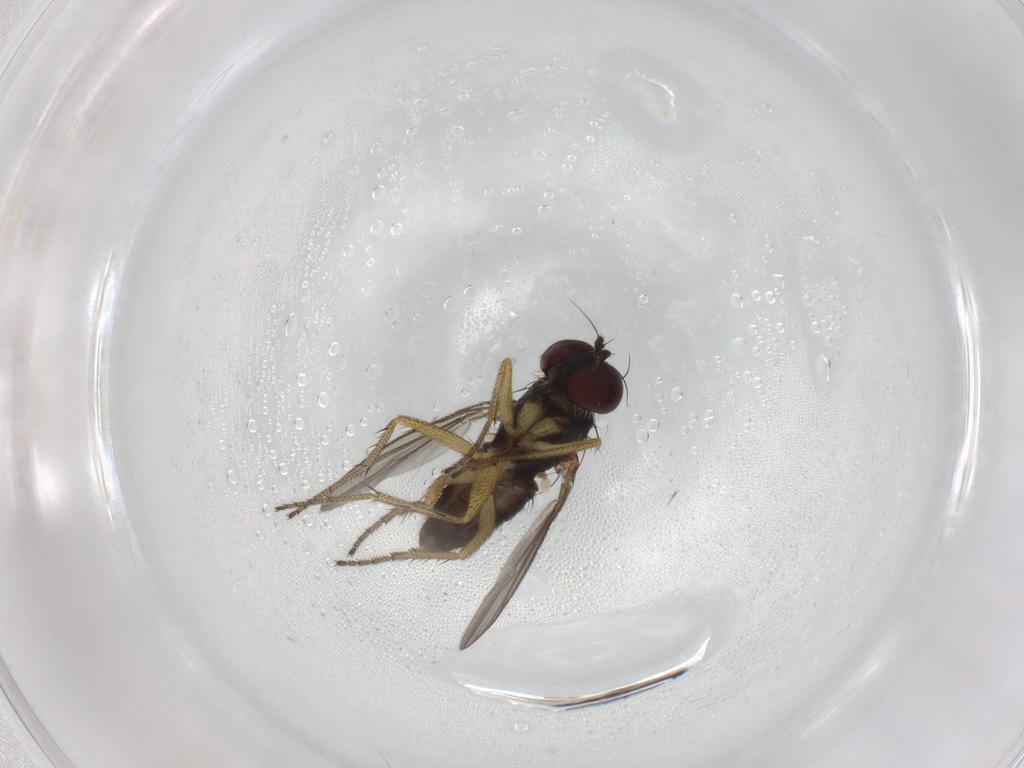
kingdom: Animalia
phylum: Arthropoda
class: Insecta
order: Diptera
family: Dolichopodidae
